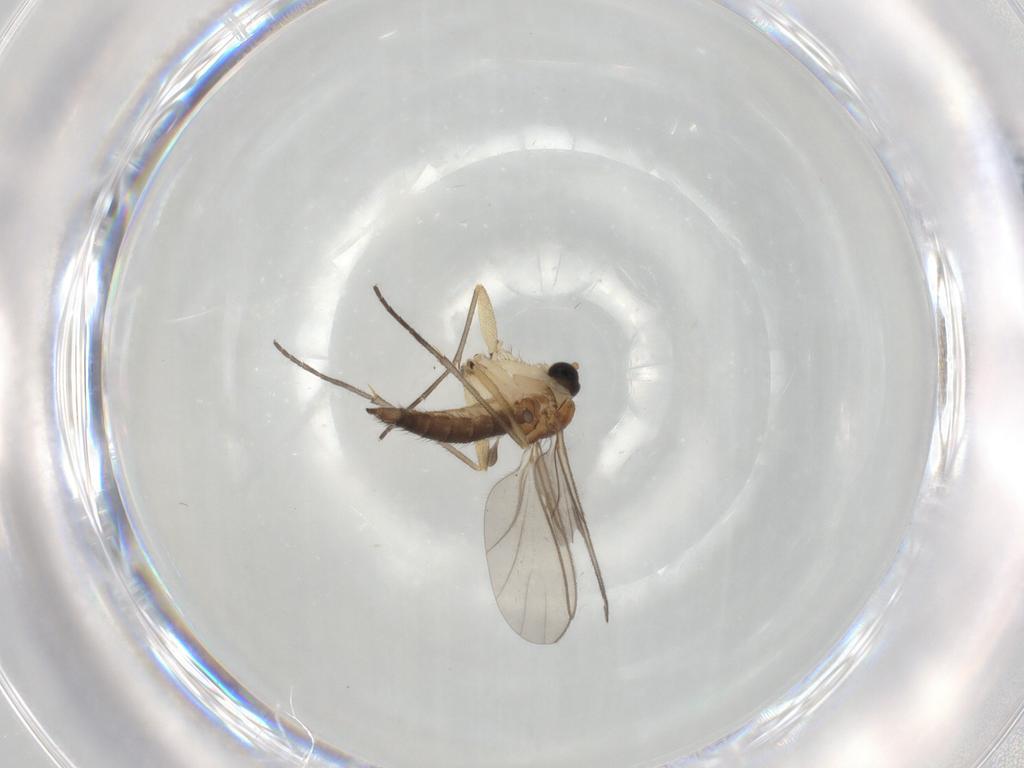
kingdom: Animalia
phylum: Arthropoda
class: Insecta
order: Diptera
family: Sciaridae
